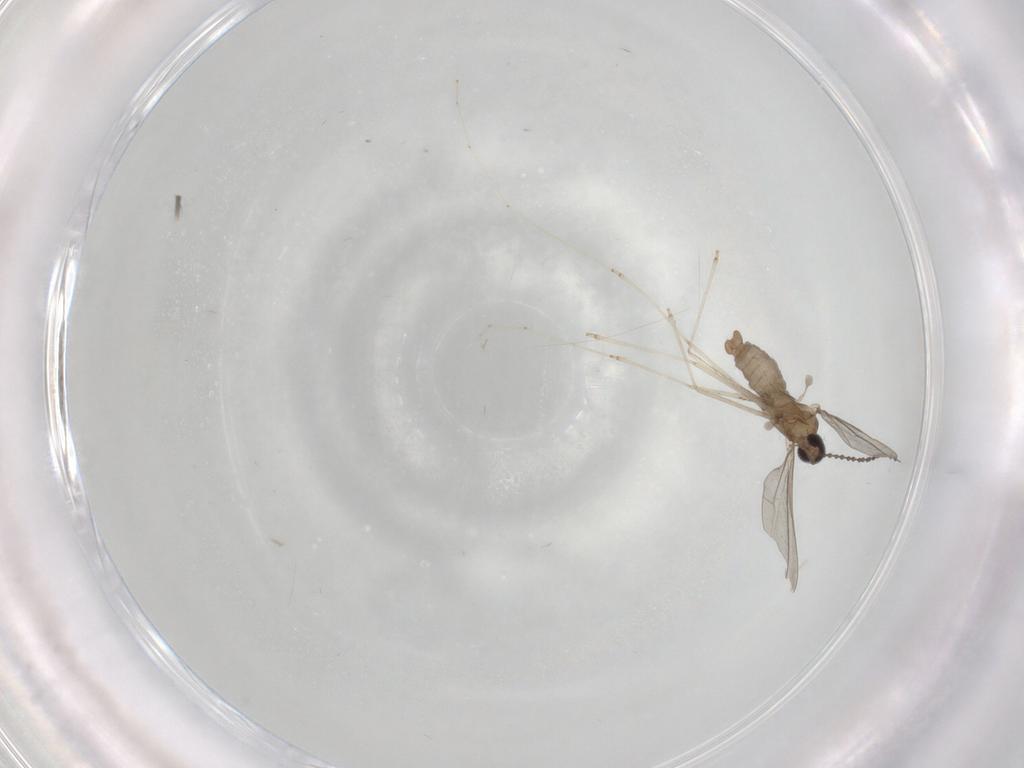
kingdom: Animalia
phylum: Arthropoda
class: Insecta
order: Diptera
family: Cecidomyiidae
